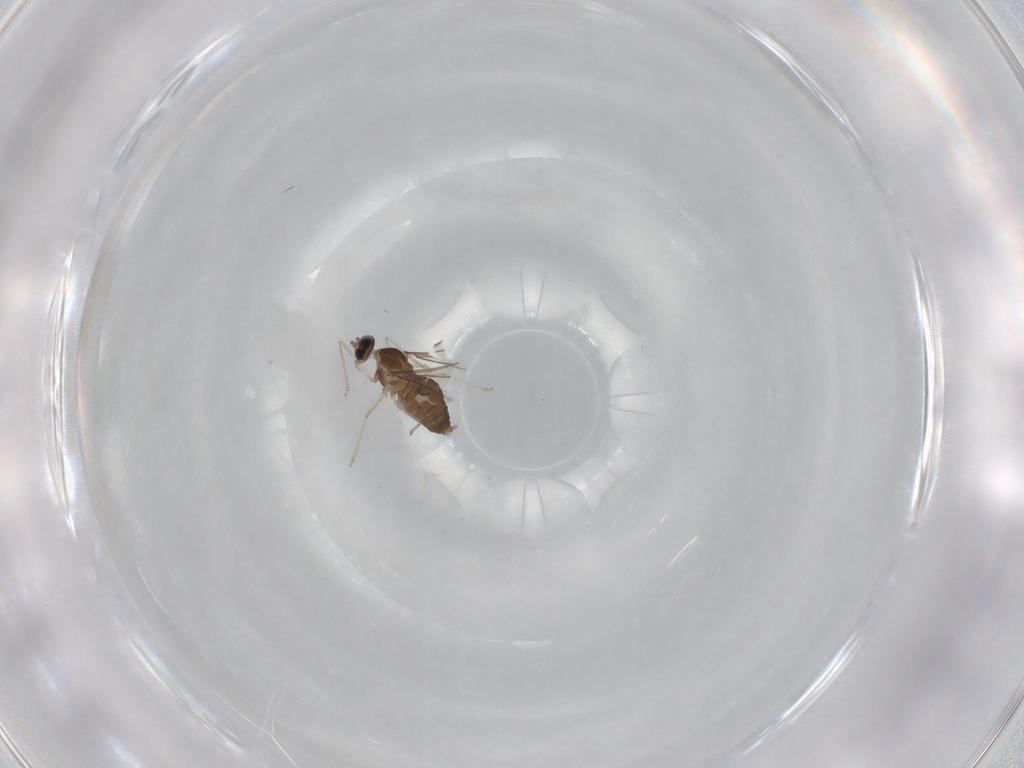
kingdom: Animalia
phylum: Arthropoda
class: Insecta
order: Diptera
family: Cecidomyiidae
